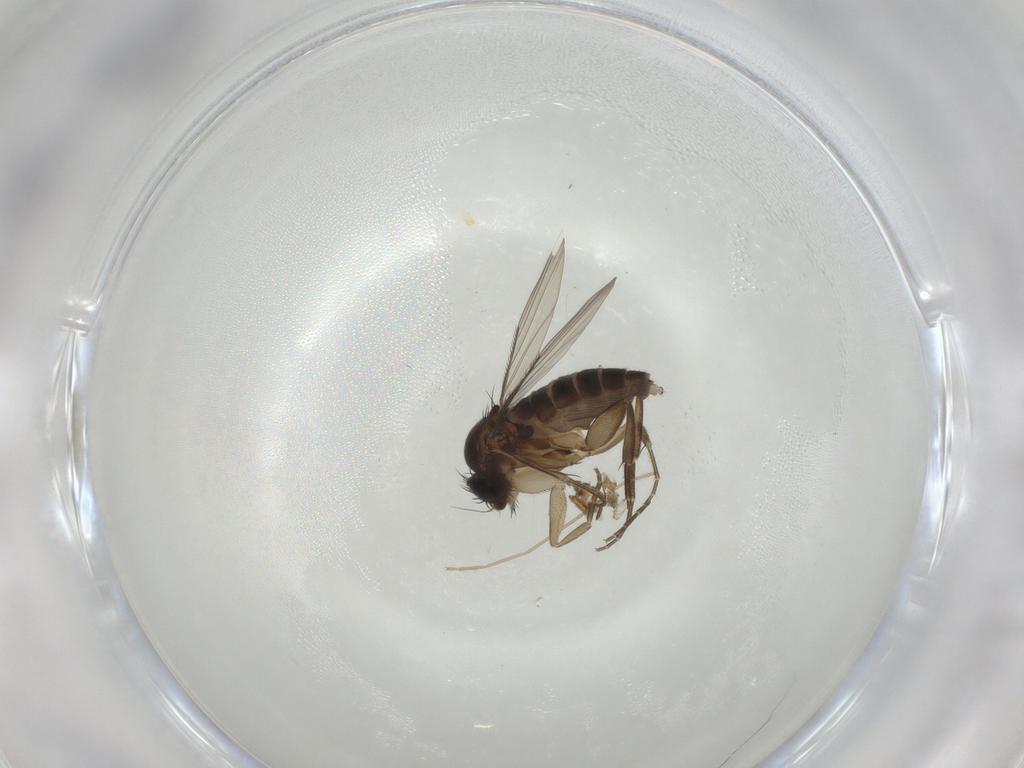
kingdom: Animalia
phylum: Arthropoda
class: Insecta
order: Diptera
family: Phoridae
